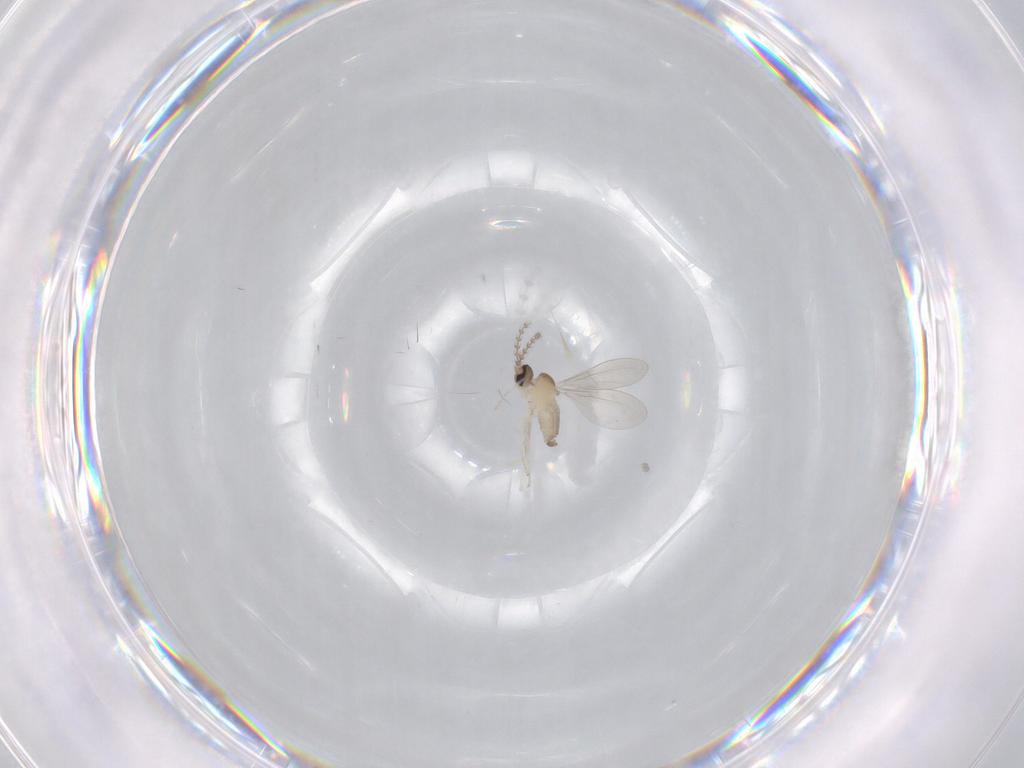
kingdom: Animalia
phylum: Arthropoda
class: Insecta
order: Diptera
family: Cecidomyiidae
